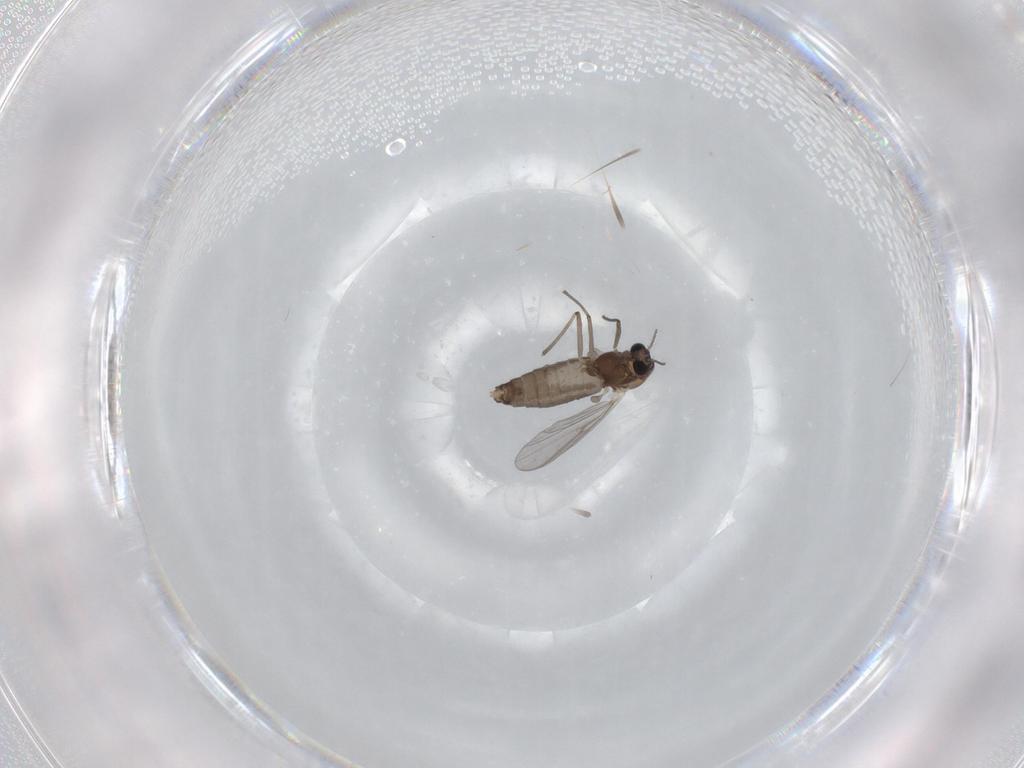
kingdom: Animalia
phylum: Arthropoda
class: Insecta
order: Diptera
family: Chironomidae
